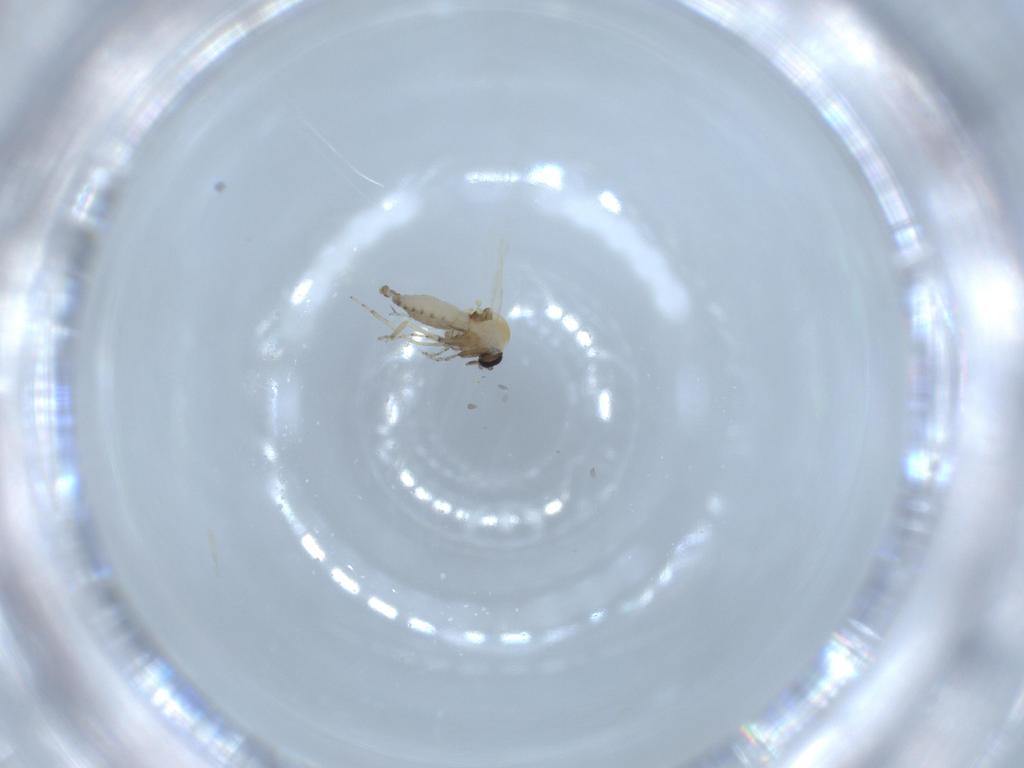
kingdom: Animalia
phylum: Arthropoda
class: Insecta
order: Diptera
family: Ceratopogonidae
